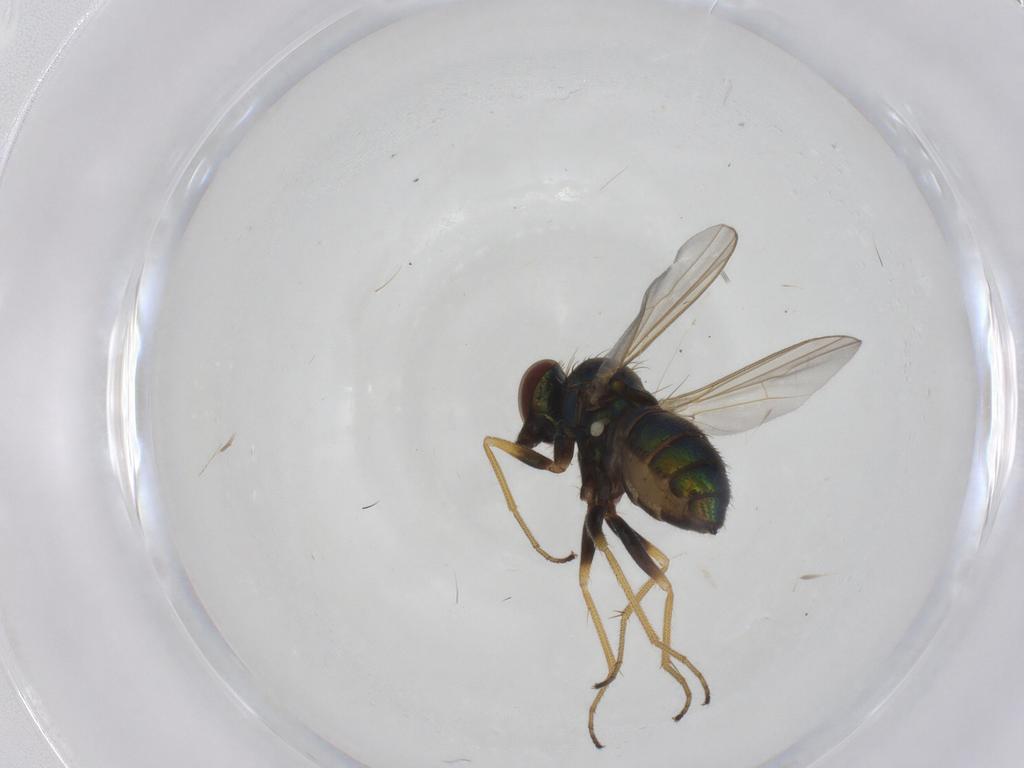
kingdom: Animalia
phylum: Arthropoda
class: Insecta
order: Diptera
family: Dolichopodidae
